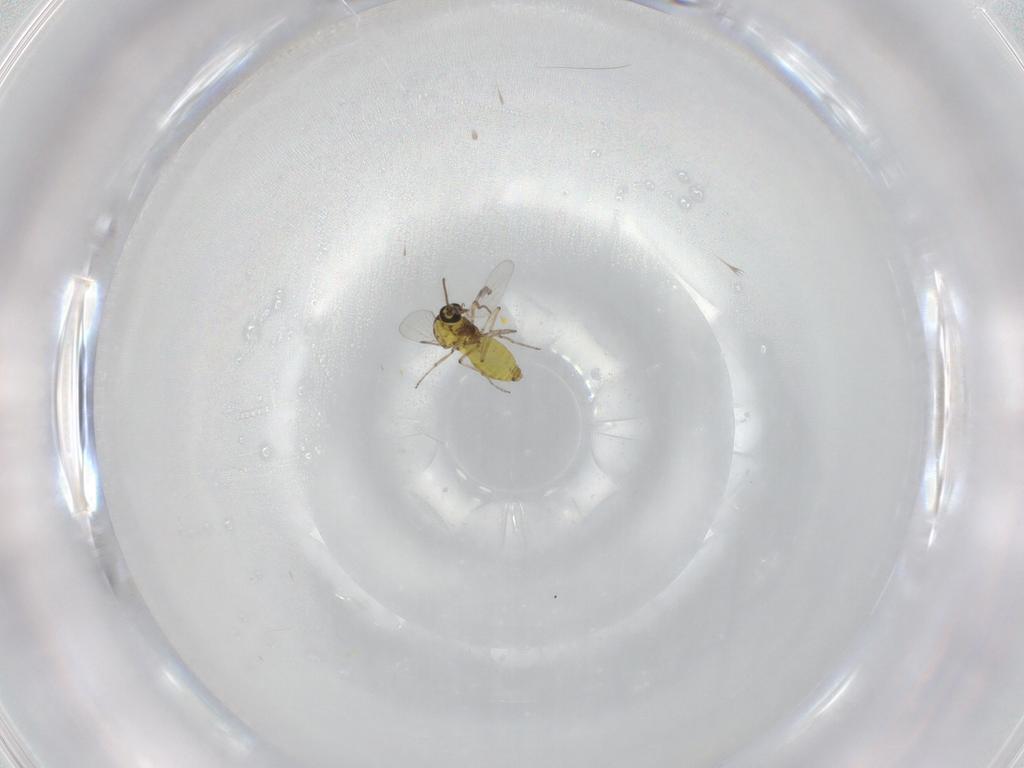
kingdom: Animalia
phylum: Arthropoda
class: Insecta
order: Diptera
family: Ceratopogonidae
